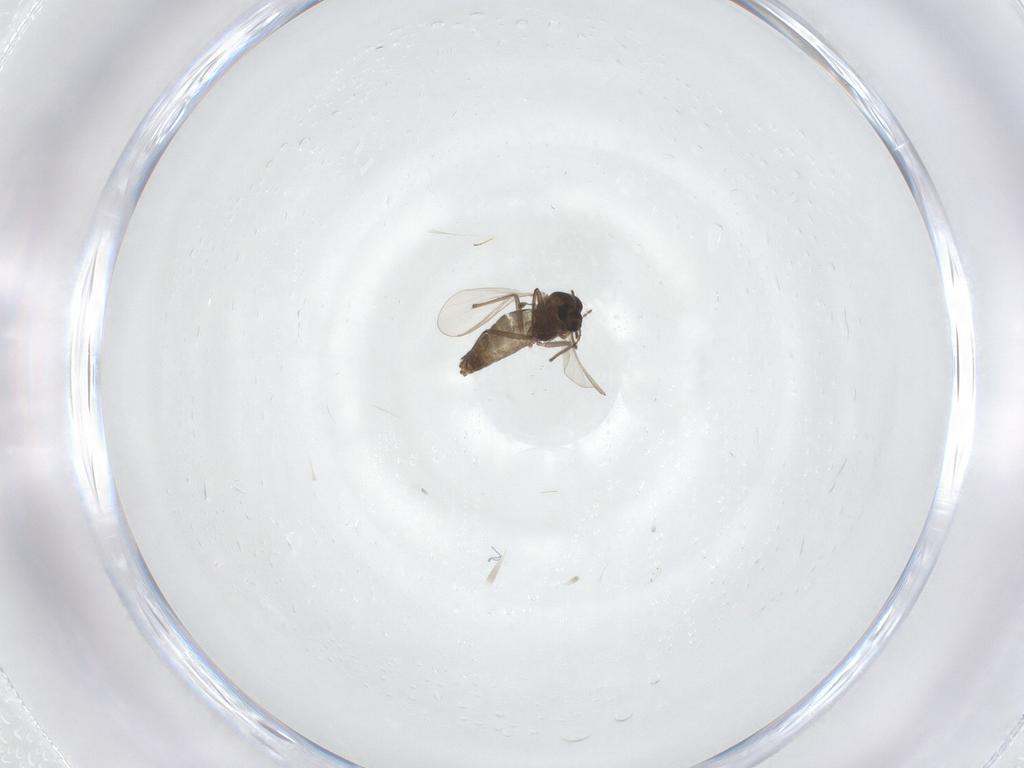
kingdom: Animalia
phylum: Arthropoda
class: Insecta
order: Diptera
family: Chironomidae
